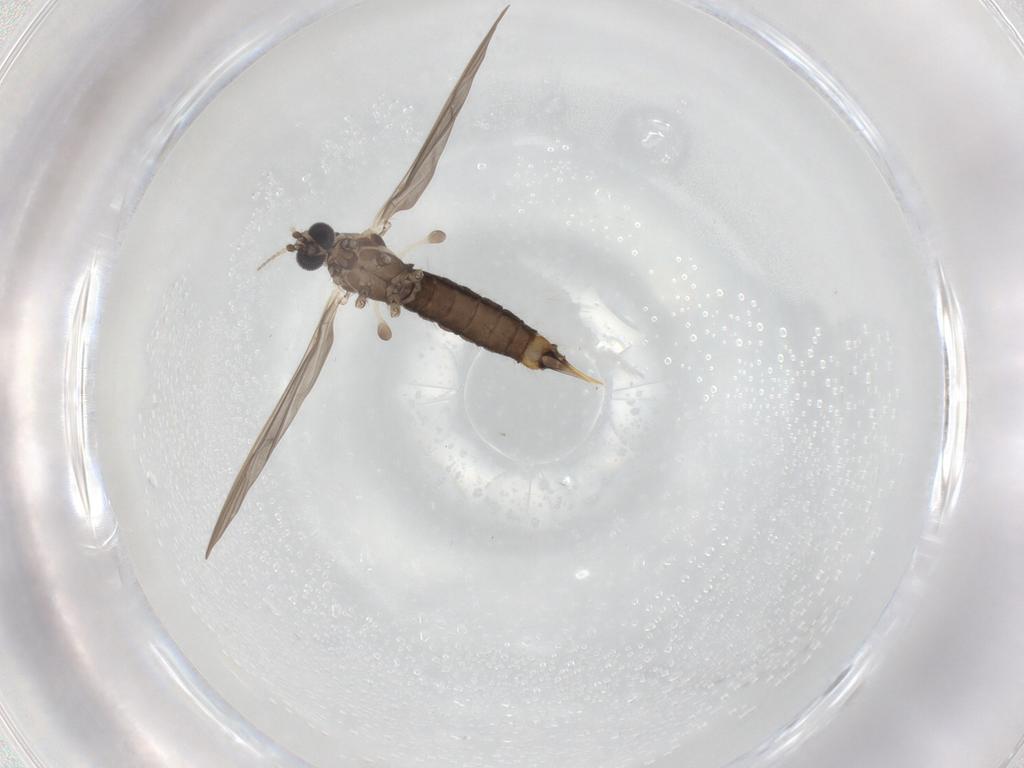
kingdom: Animalia
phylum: Arthropoda
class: Insecta
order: Diptera
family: Limoniidae
